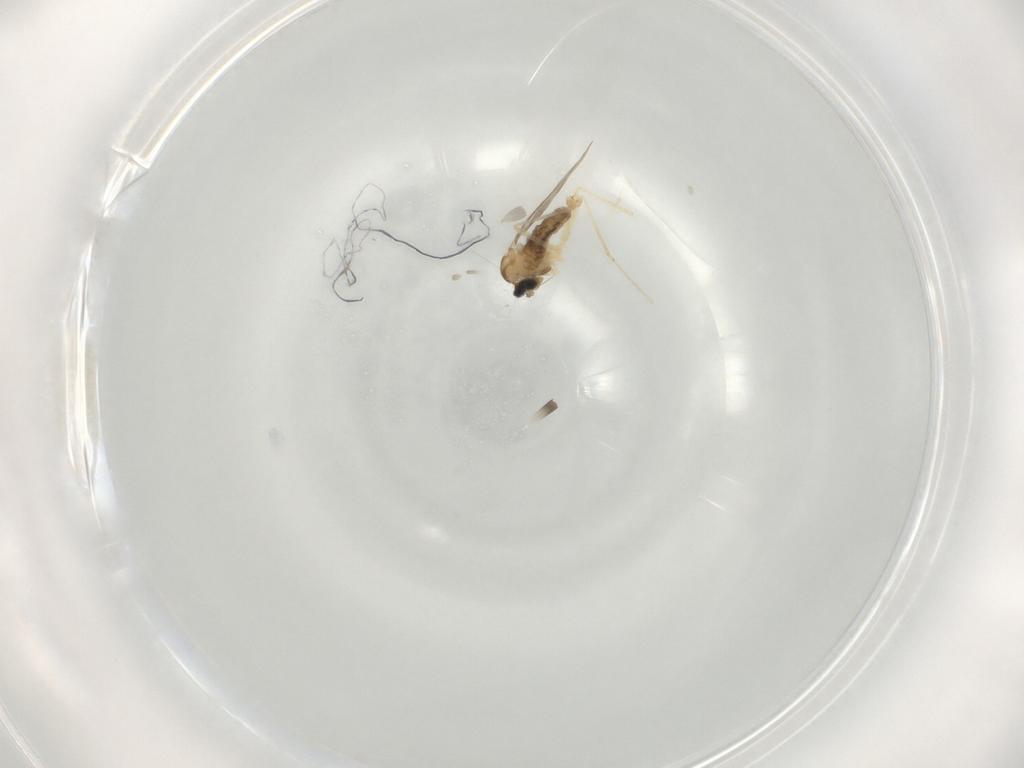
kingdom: Animalia
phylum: Arthropoda
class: Insecta
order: Diptera
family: Cecidomyiidae
